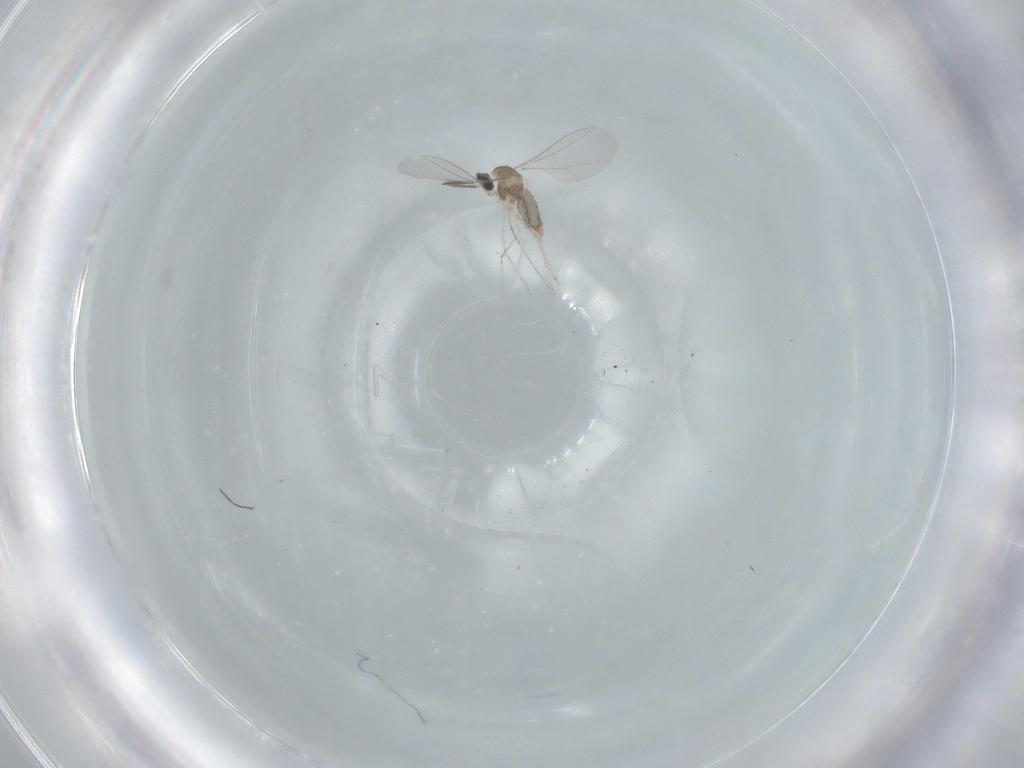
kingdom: Animalia
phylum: Arthropoda
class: Insecta
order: Diptera
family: Cecidomyiidae
